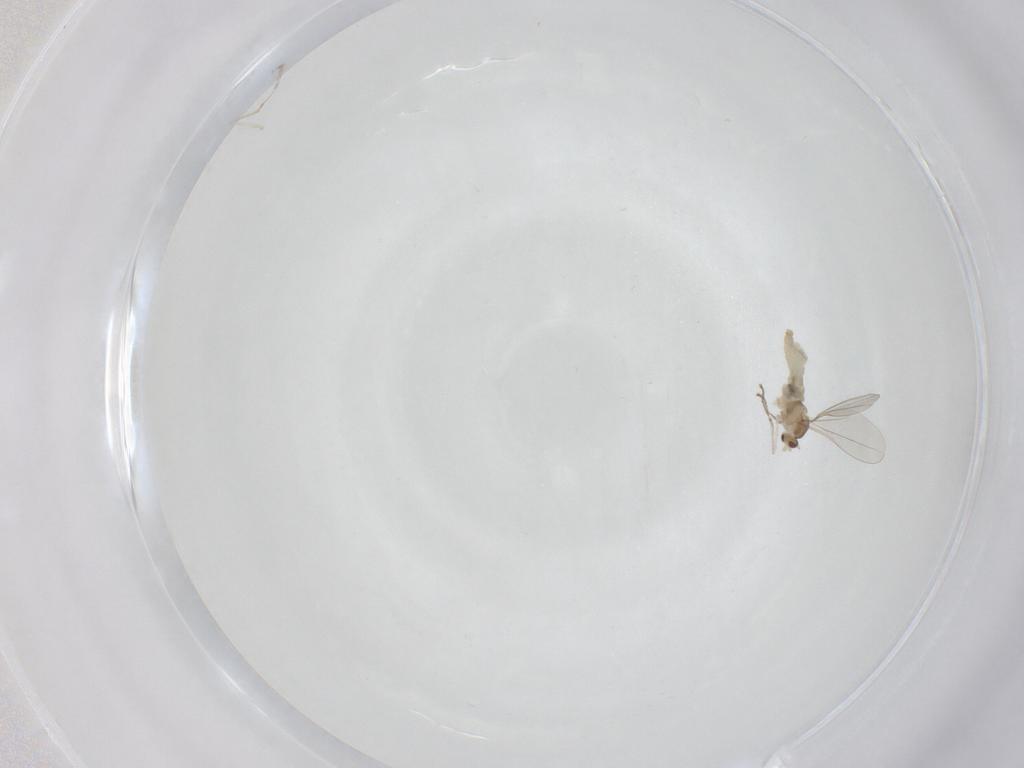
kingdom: Animalia
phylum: Arthropoda
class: Insecta
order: Diptera
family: Cecidomyiidae
